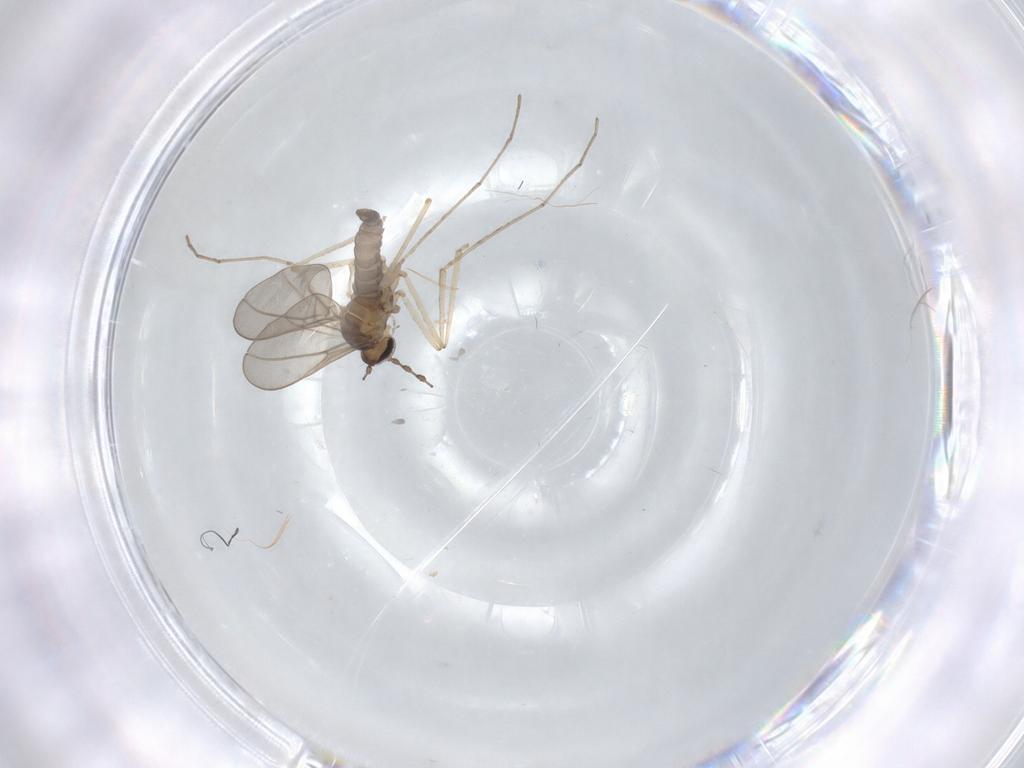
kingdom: Animalia
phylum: Arthropoda
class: Insecta
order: Diptera
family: Cecidomyiidae
